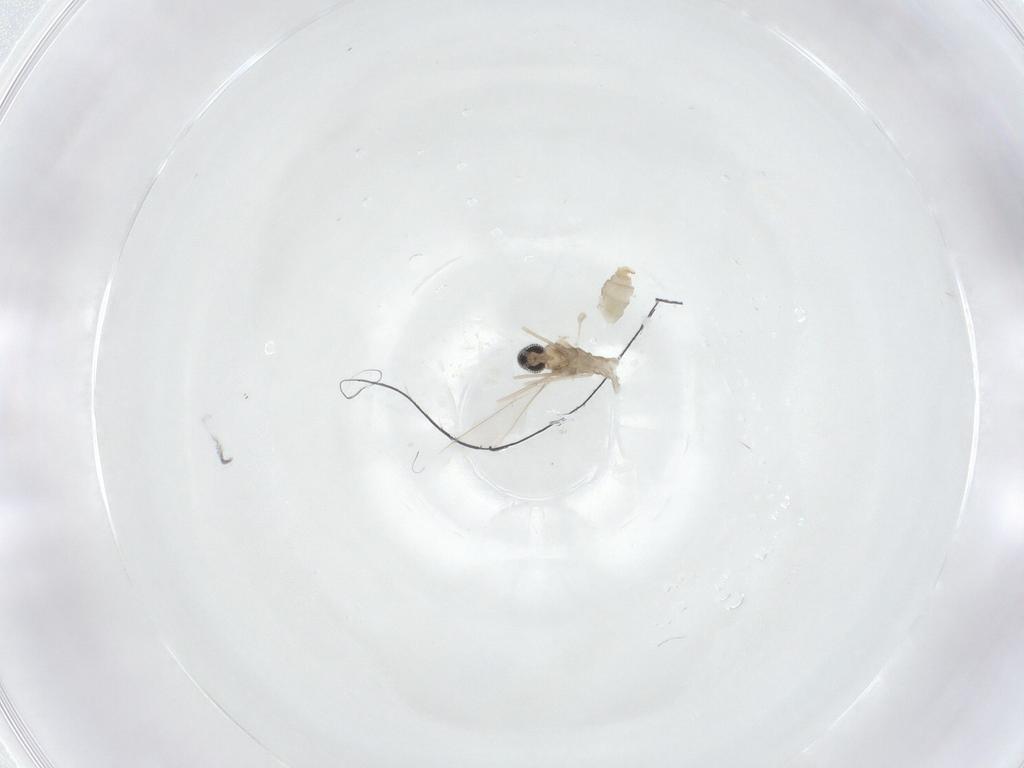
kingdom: Animalia
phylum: Arthropoda
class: Insecta
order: Diptera
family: Cecidomyiidae
